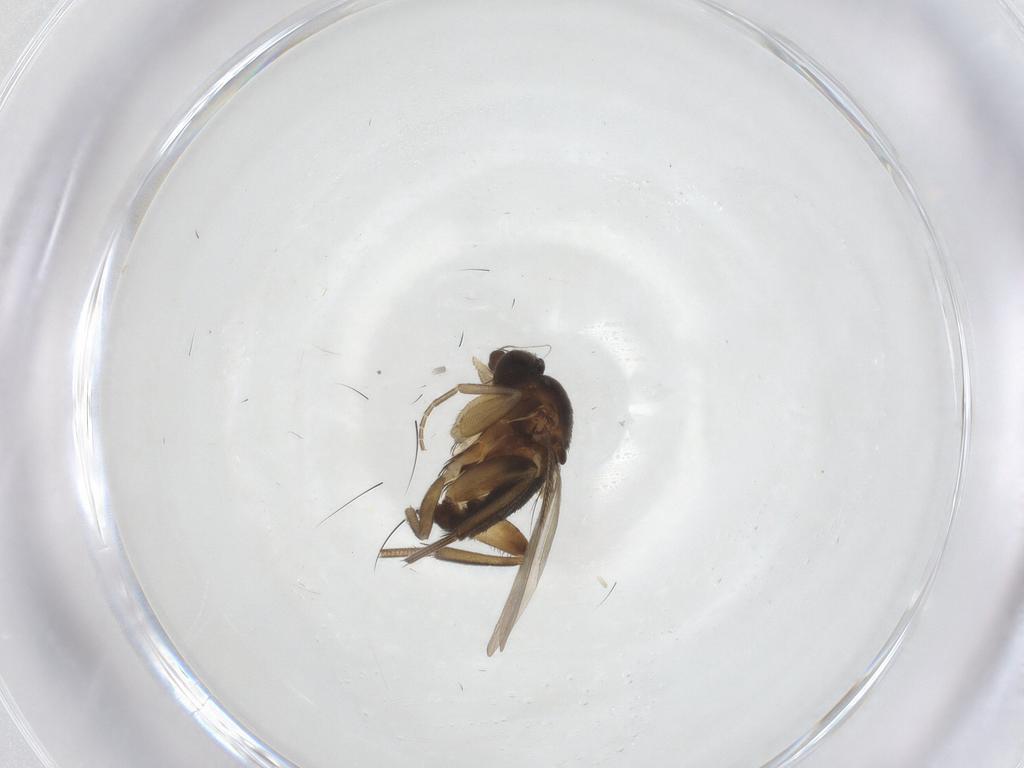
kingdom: Animalia
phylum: Arthropoda
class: Insecta
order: Diptera
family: Phoridae
